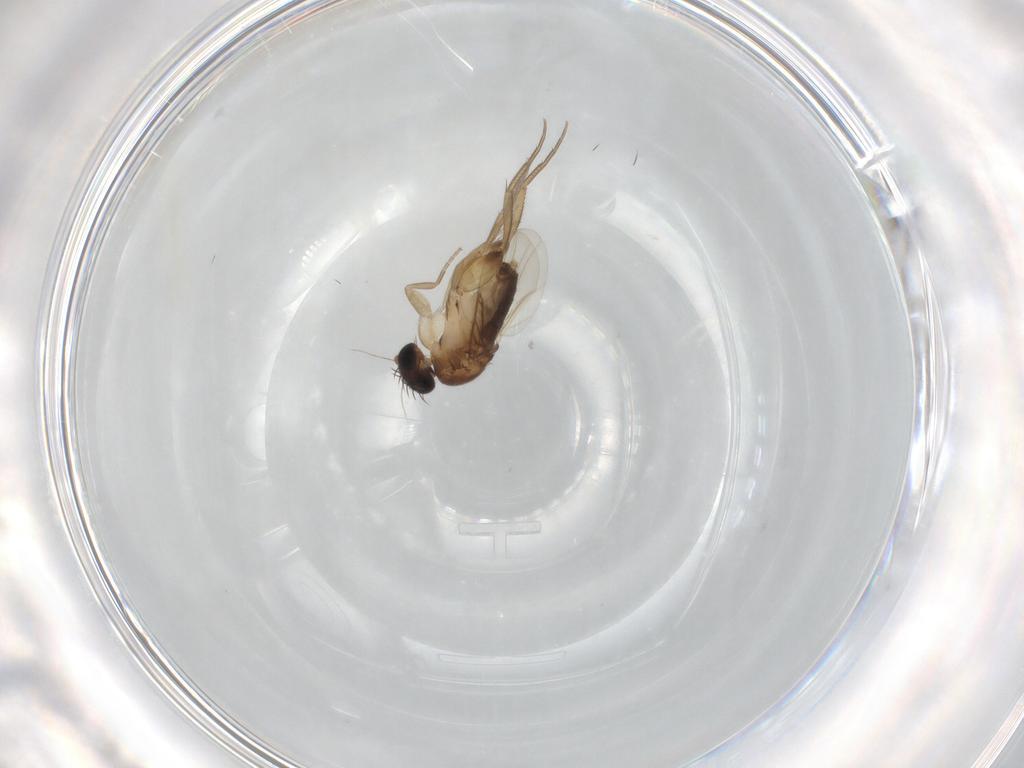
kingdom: Animalia
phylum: Arthropoda
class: Insecta
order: Diptera
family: Phoridae
